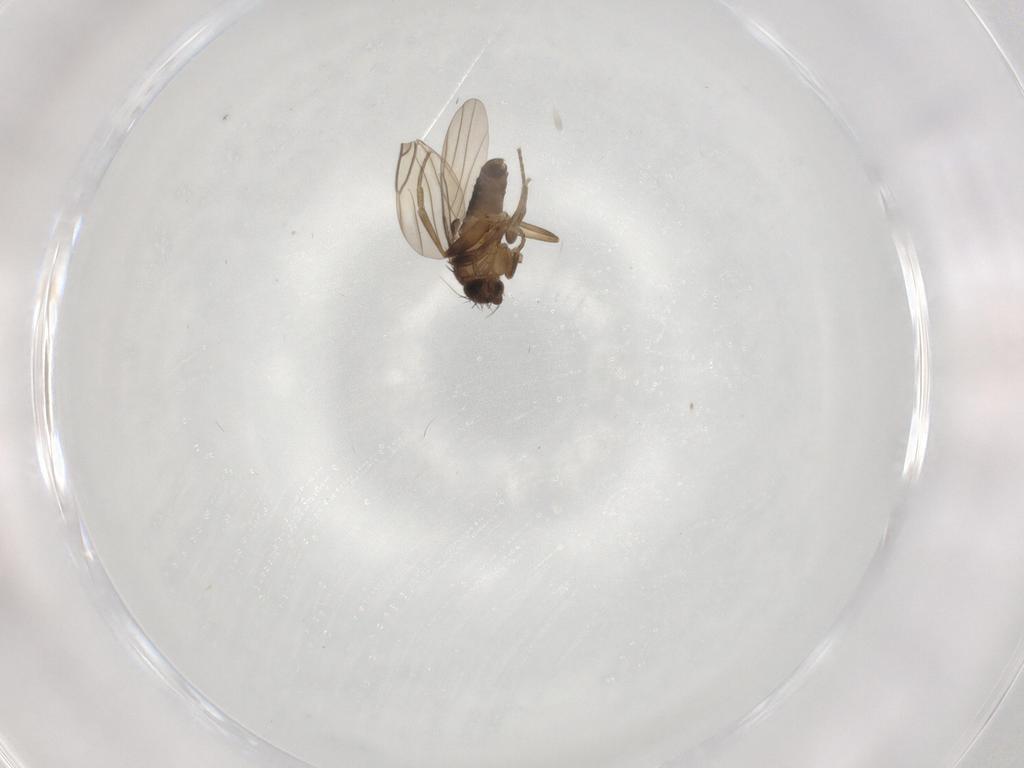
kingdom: Animalia
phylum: Arthropoda
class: Insecta
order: Diptera
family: Phoridae
